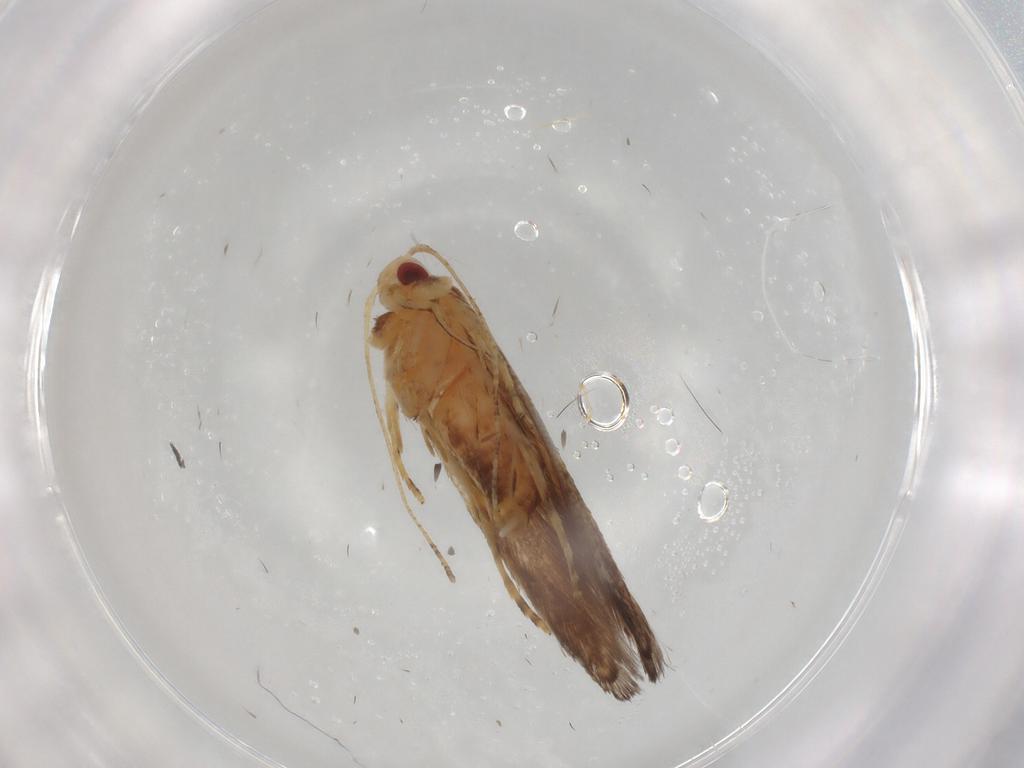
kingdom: Animalia
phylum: Arthropoda
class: Insecta
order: Lepidoptera
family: Cosmopterigidae
